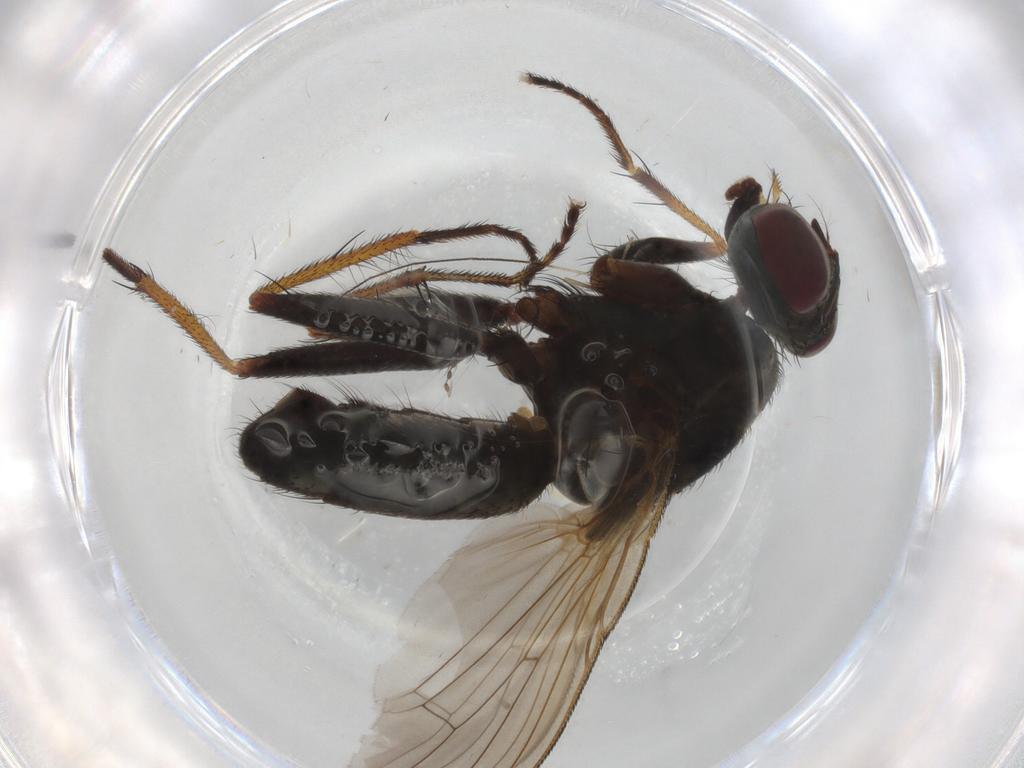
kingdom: Animalia
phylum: Arthropoda
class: Insecta
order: Diptera
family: Muscidae
